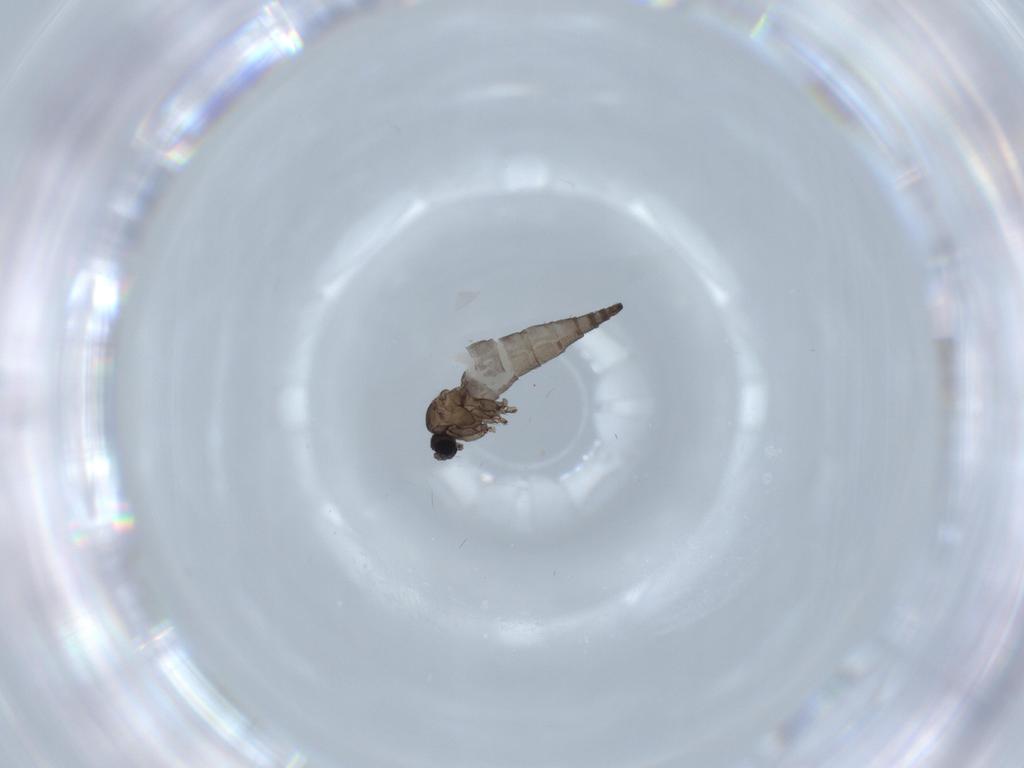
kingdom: Animalia
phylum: Arthropoda
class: Insecta
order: Diptera
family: Sciaridae
